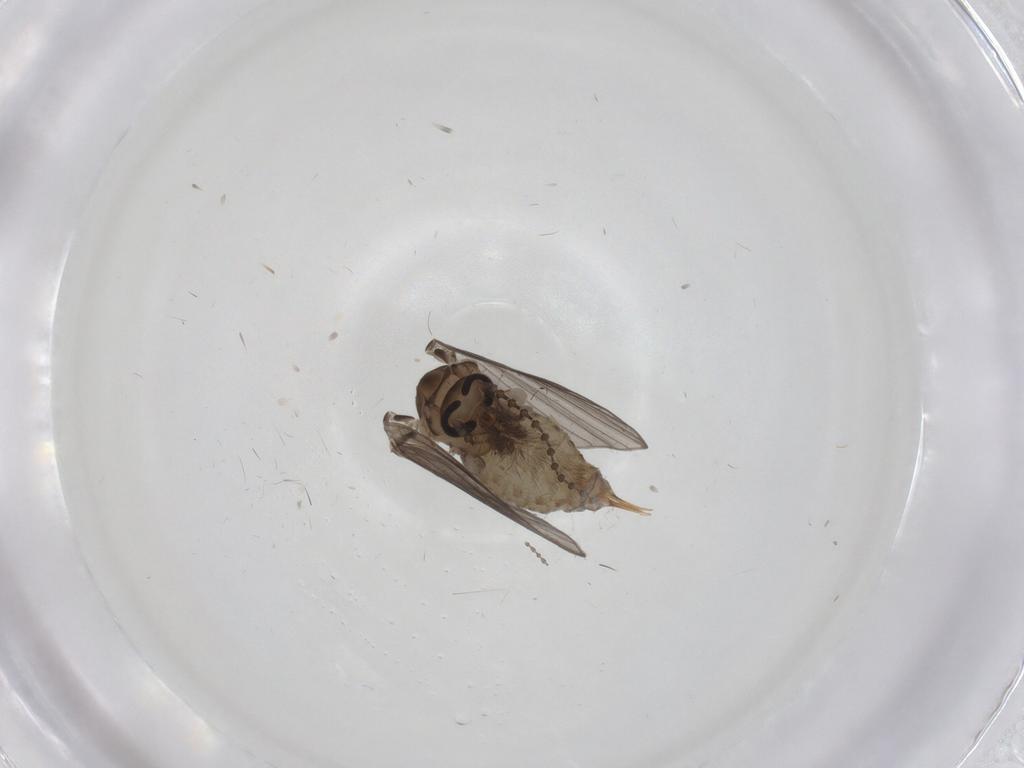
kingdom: Animalia
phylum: Arthropoda
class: Insecta
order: Diptera
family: Psychodidae
